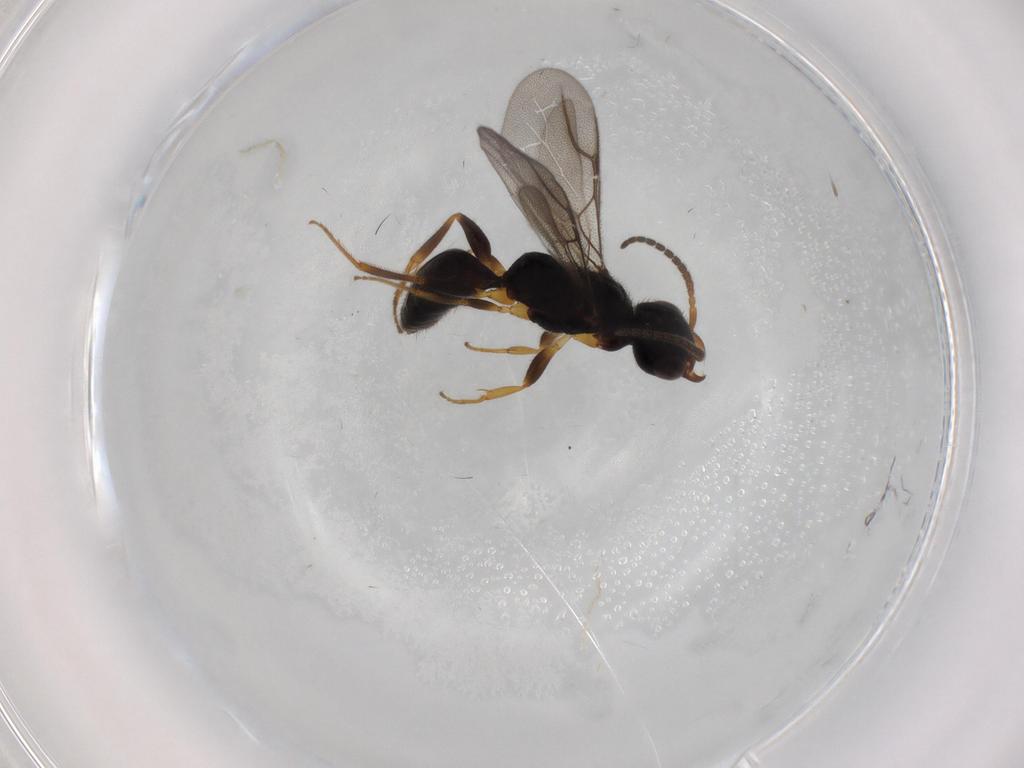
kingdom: Animalia
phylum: Arthropoda
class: Insecta
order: Hymenoptera
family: Bethylidae
